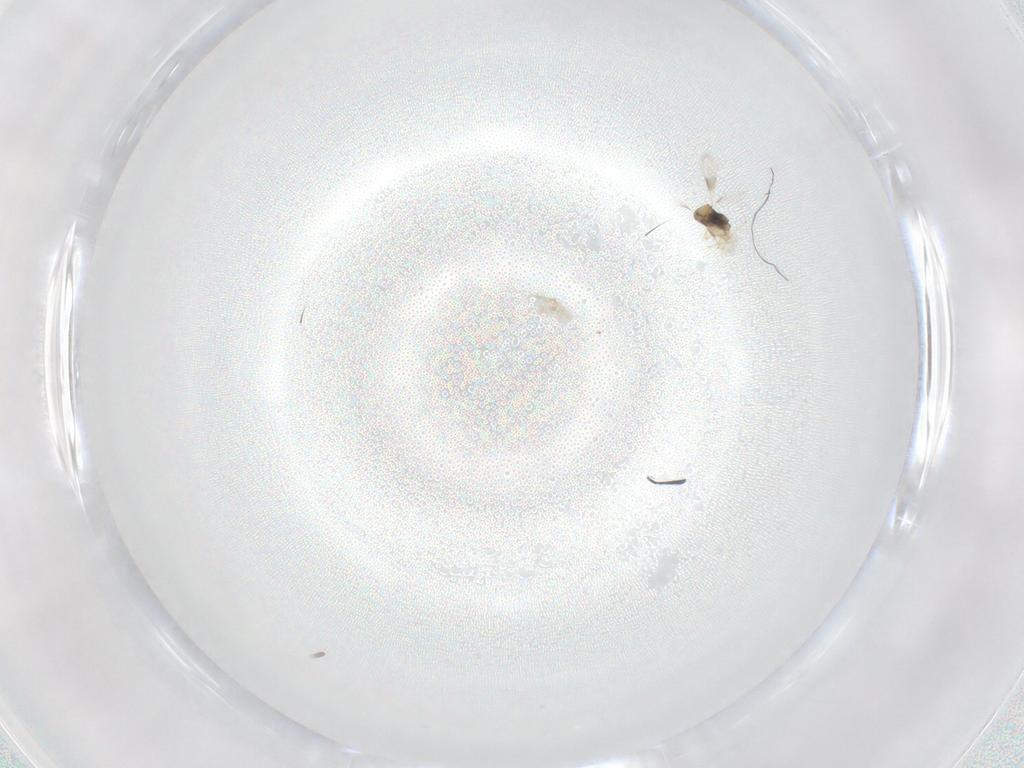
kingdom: Animalia
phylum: Arthropoda
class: Insecta
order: Hymenoptera
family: Aphelinidae
